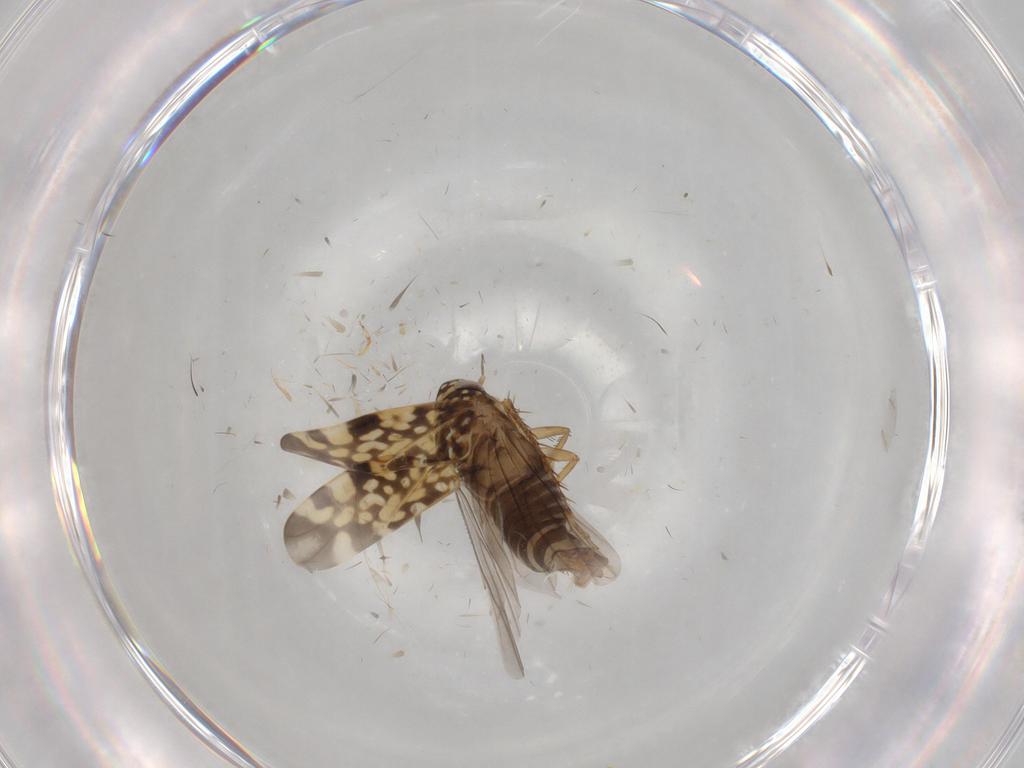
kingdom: Animalia
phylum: Arthropoda
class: Insecta
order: Hemiptera
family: Cicadellidae
